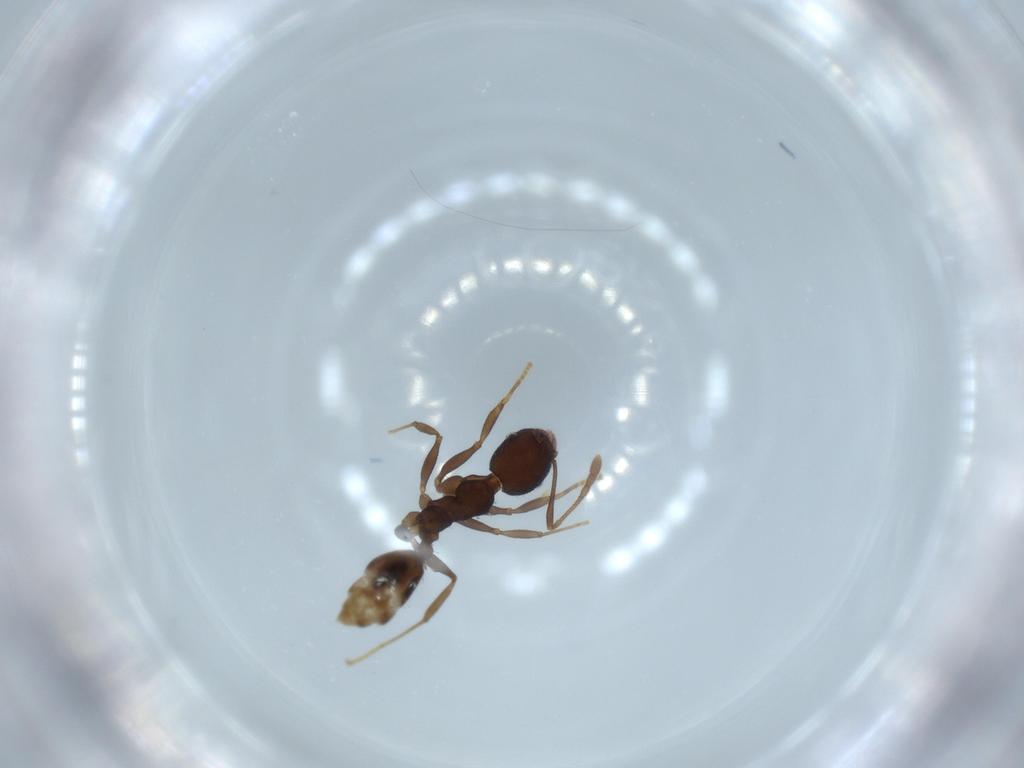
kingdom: Animalia
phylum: Arthropoda
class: Insecta
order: Hymenoptera
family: Formicidae
